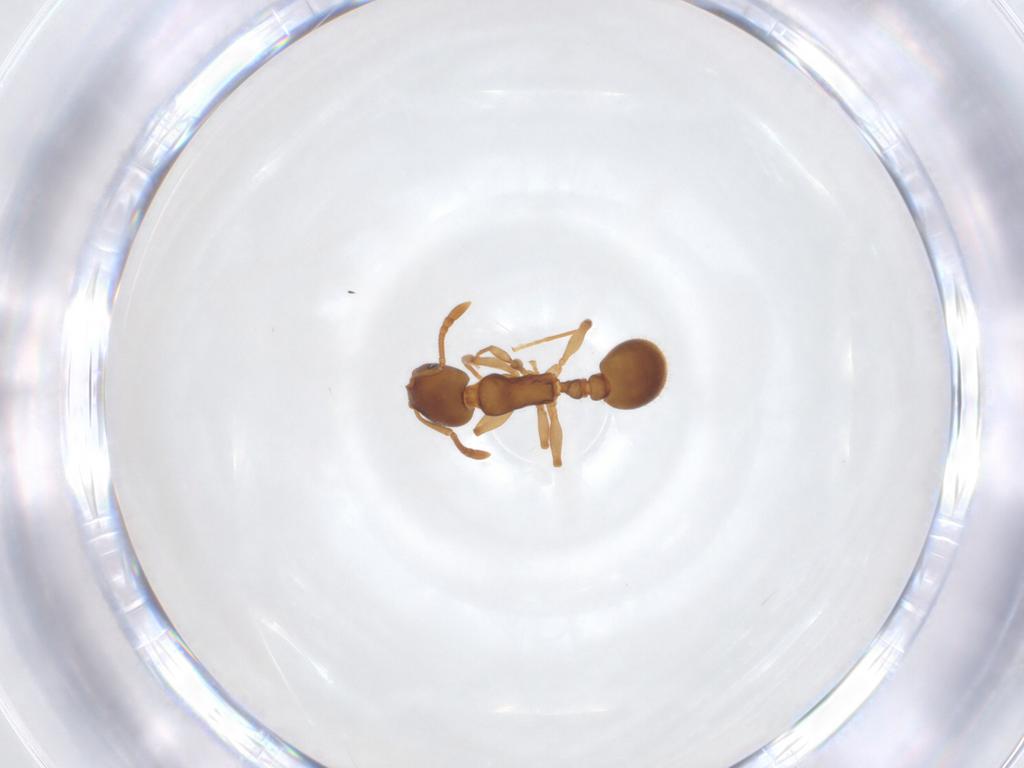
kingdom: Animalia
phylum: Arthropoda
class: Insecta
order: Hymenoptera
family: Formicidae
